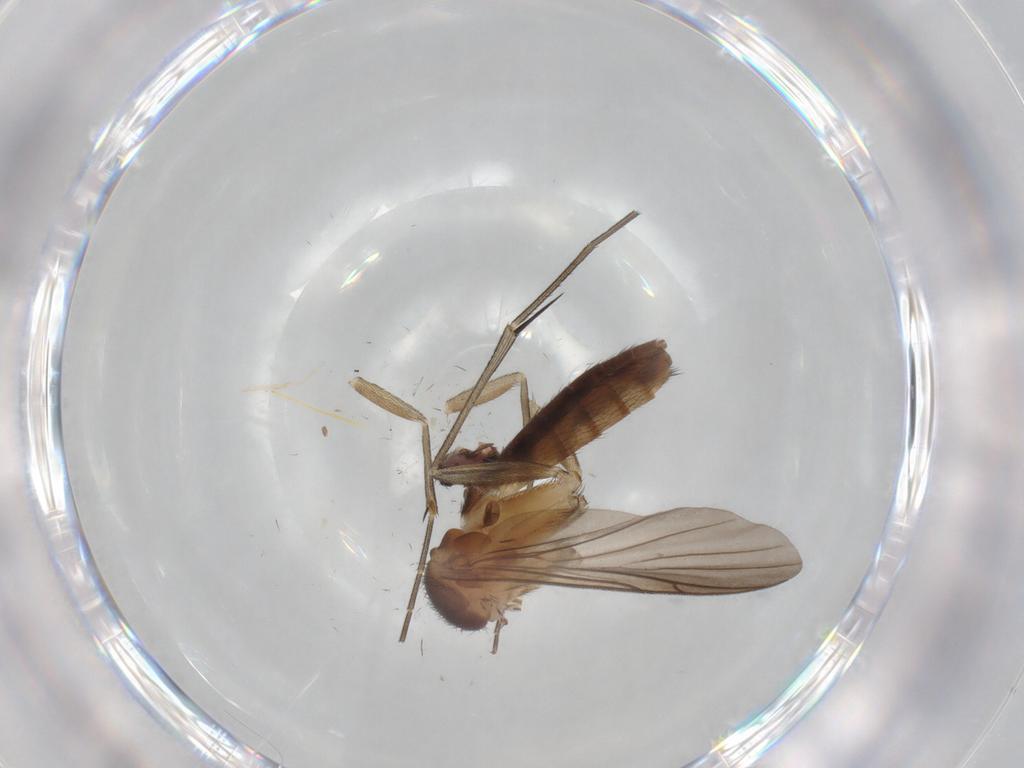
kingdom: Animalia
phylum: Arthropoda
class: Insecta
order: Diptera
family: Keroplatidae
